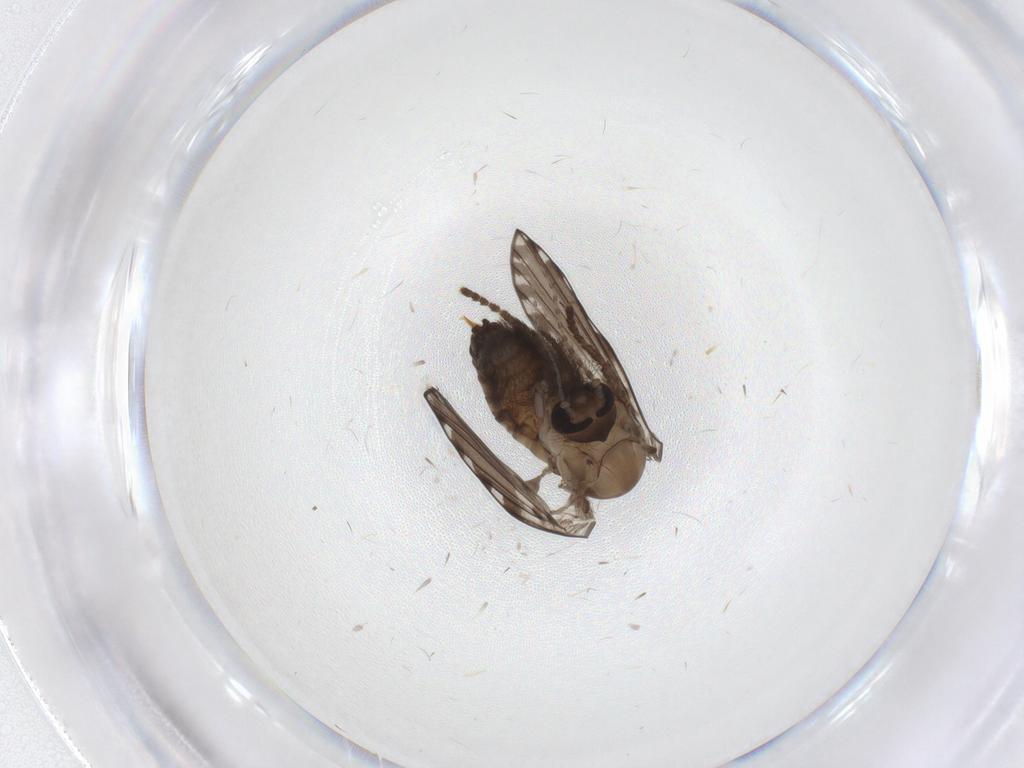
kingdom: Animalia
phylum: Arthropoda
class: Insecta
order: Diptera
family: Psychodidae
